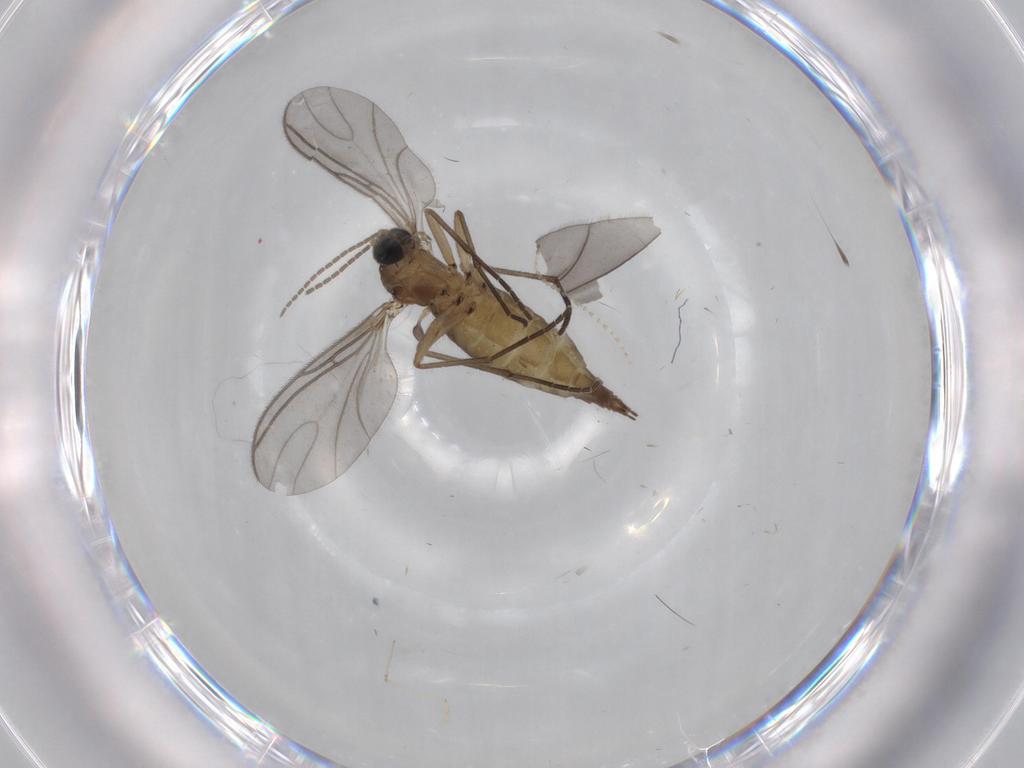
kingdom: Animalia
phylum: Arthropoda
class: Insecta
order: Diptera
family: Sciaridae
